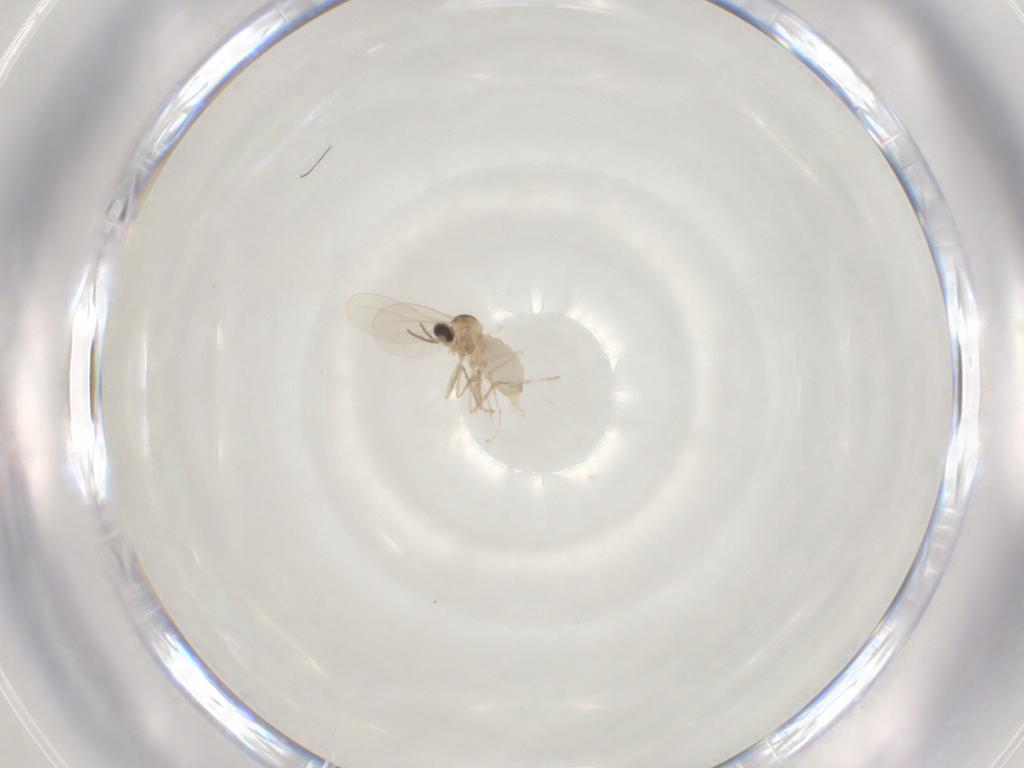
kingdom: Animalia
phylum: Arthropoda
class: Insecta
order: Diptera
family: Cecidomyiidae
